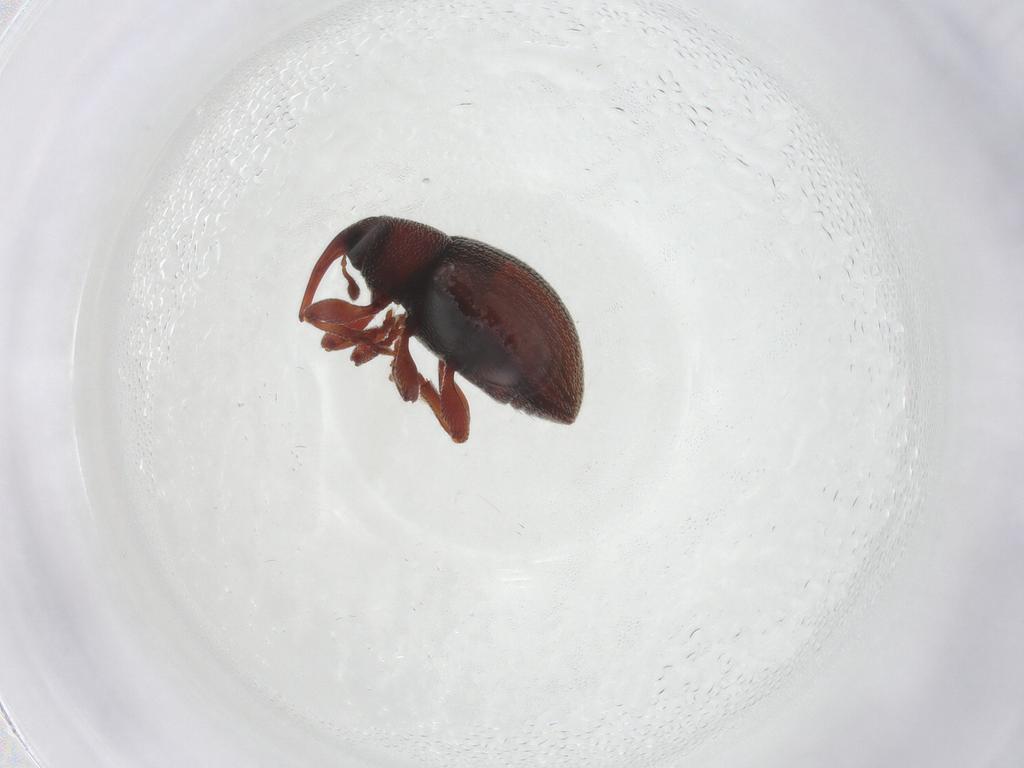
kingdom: Animalia
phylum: Arthropoda
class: Insecta
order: Coleoptera
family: Curculionidae
